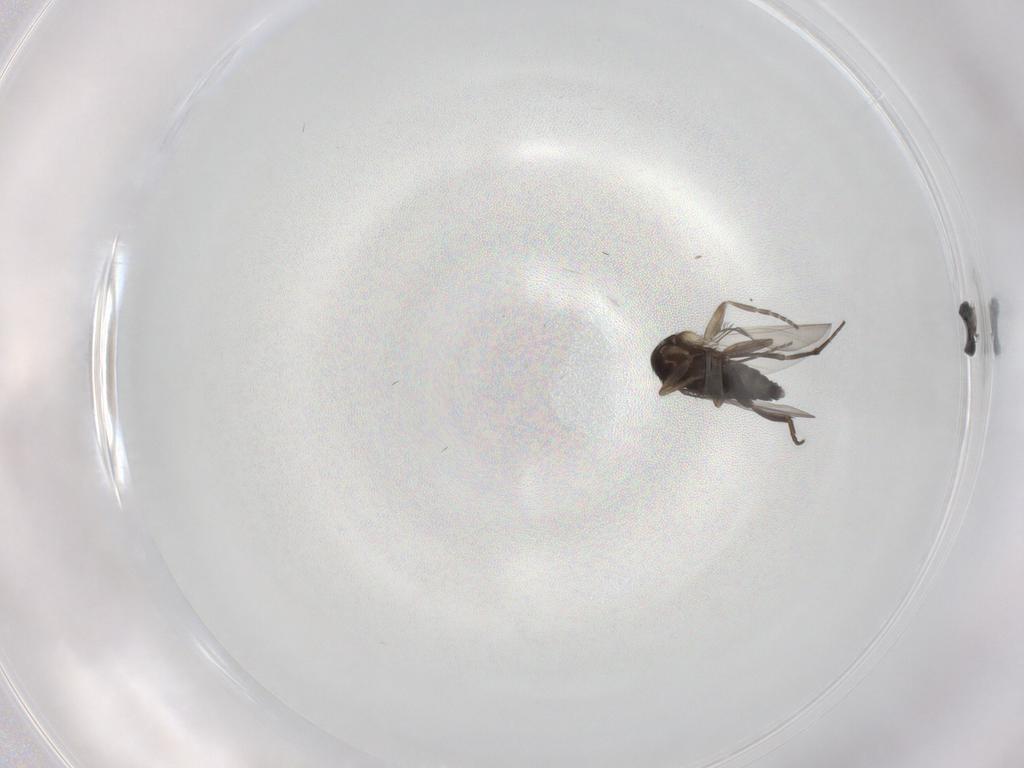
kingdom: Animalia
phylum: Arthropoda
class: Insecta
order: Diptera
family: Phoridae
